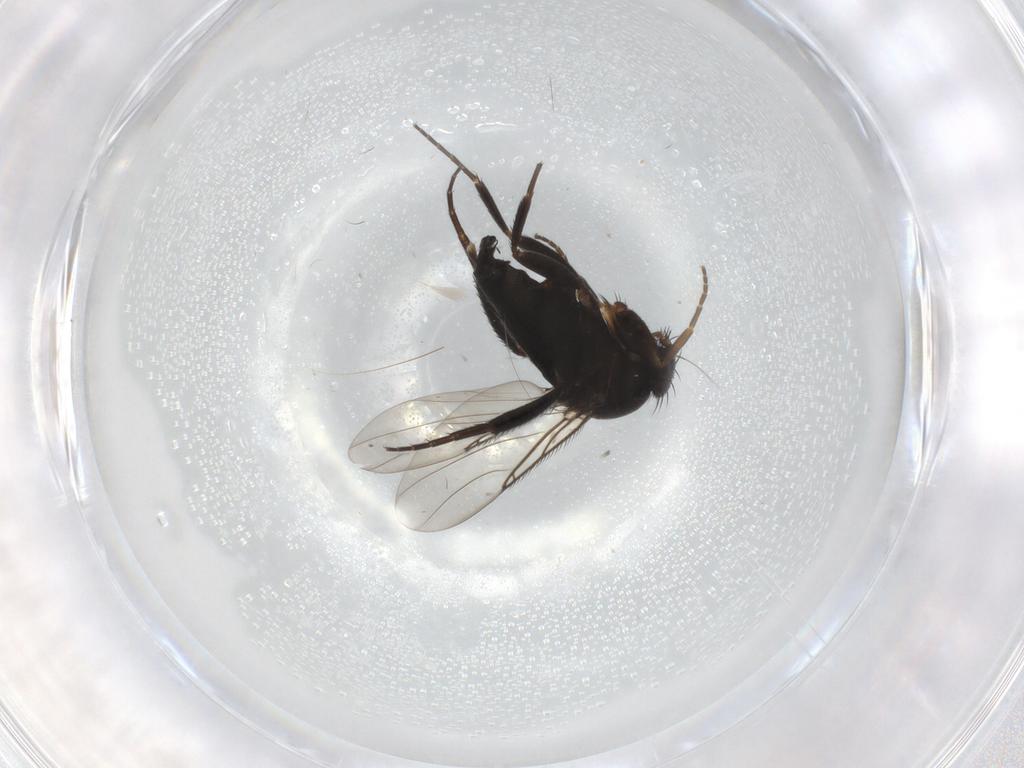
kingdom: Animalia
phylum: Arthropoda
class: Insecta
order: Diptera
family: Phoridae
